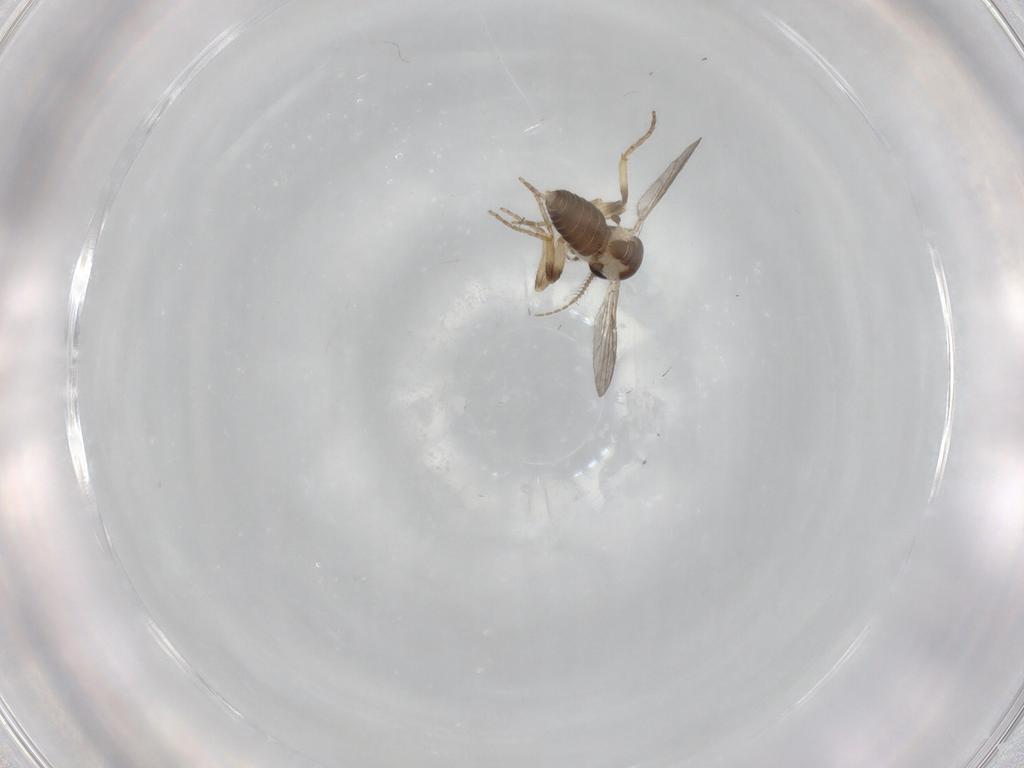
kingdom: Animalia
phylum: Arthropoda
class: Insecta
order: Diptera
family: Ceratopogonidae
